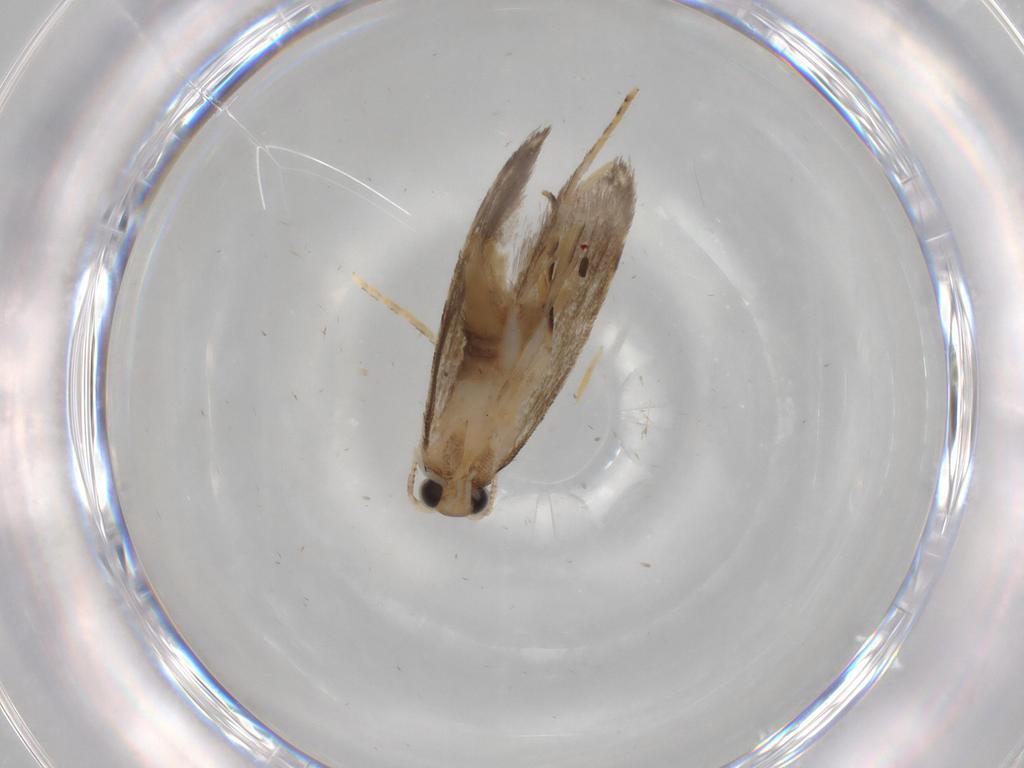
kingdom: Animalia
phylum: Arthropoda
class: Insecta
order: Lepidoptera
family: Tineidae
